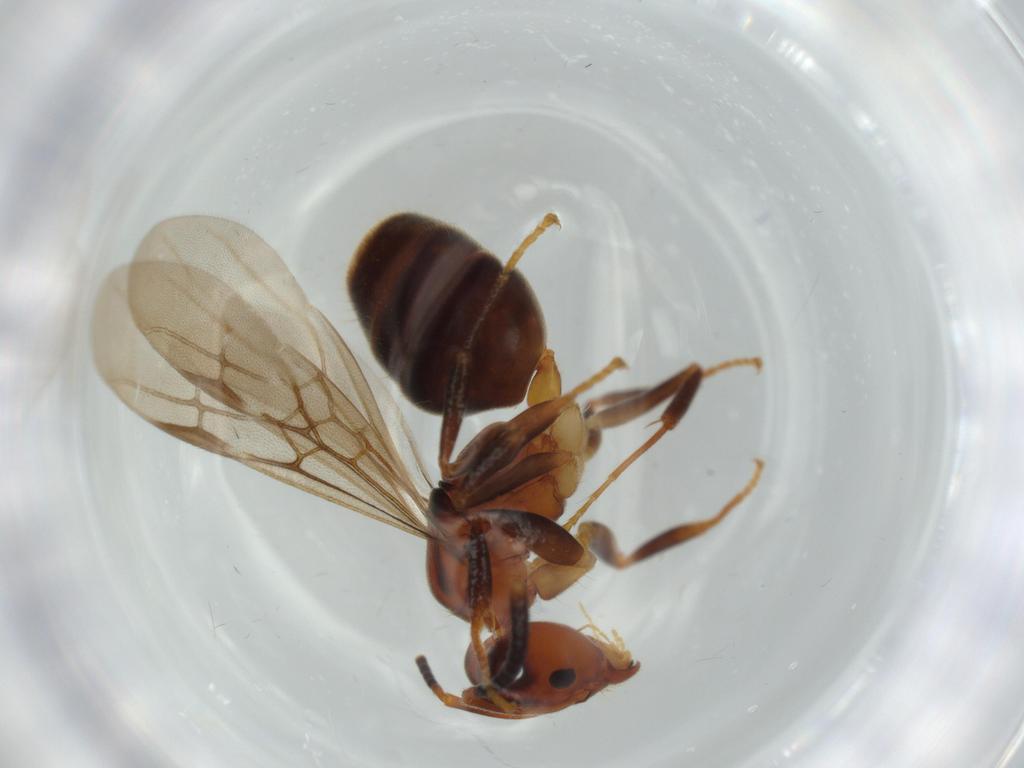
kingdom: Animalia
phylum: Arthropoda
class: Insecta
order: Hymenoptera
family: Formicidae
